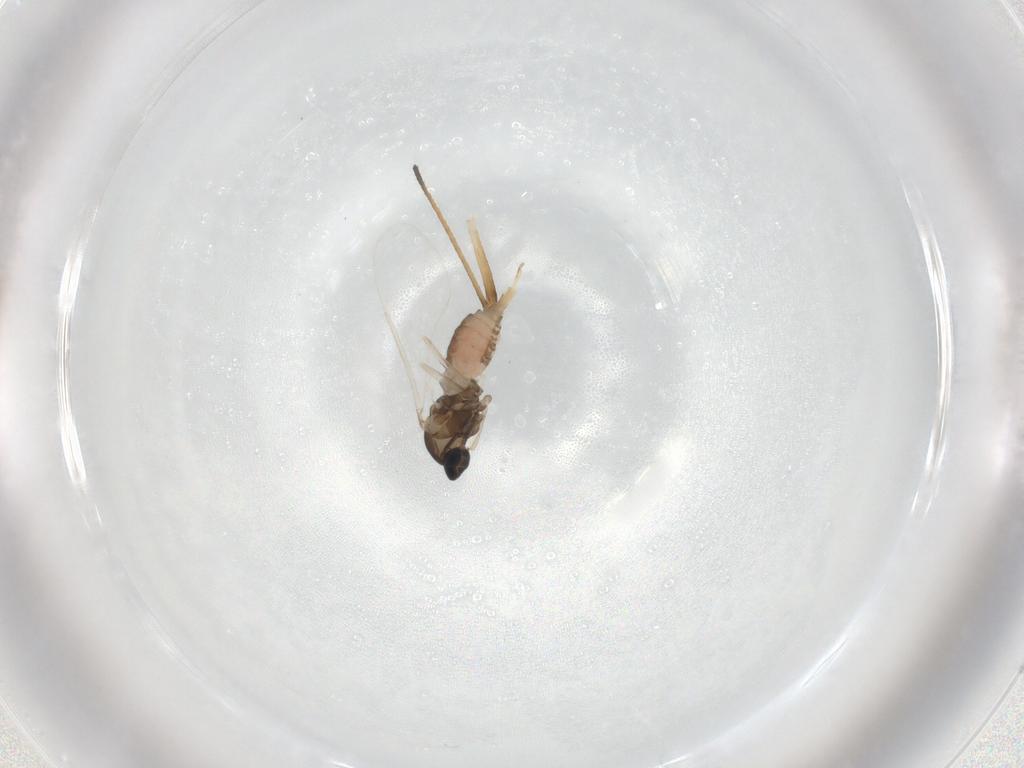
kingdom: Animalia
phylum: Arthropoda
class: Insecta
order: Diptera
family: Cecidomyiidae
